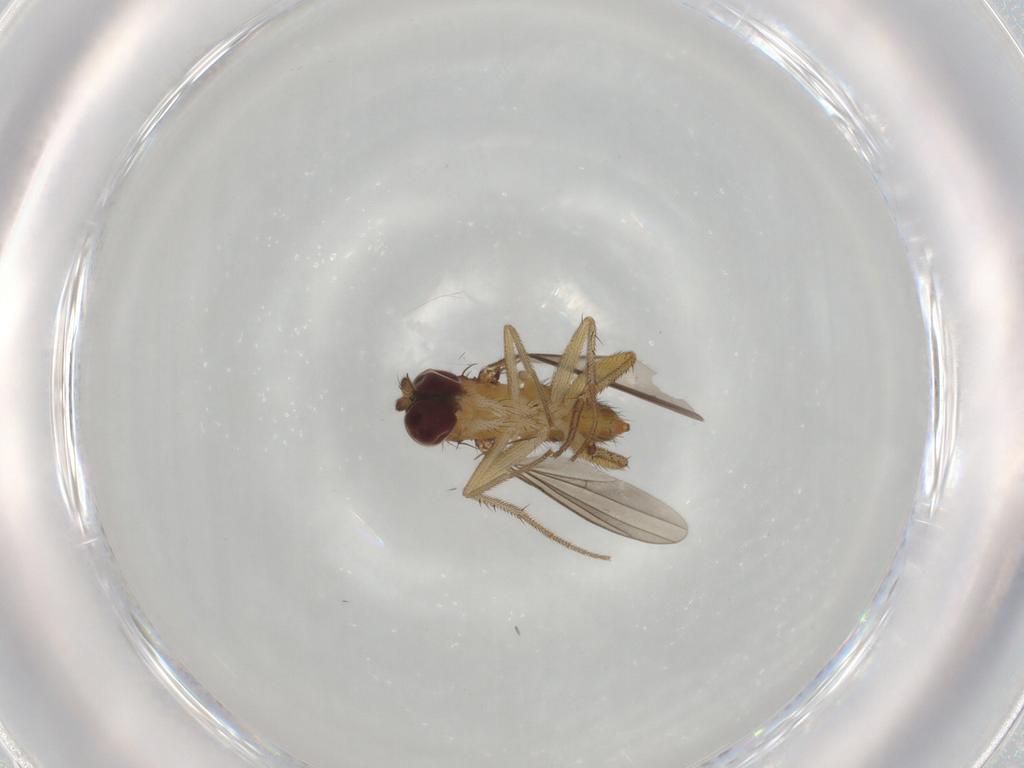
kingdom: Animalia
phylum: Arthropoda
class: Insecta
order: Diptera
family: Dolichopodidae
